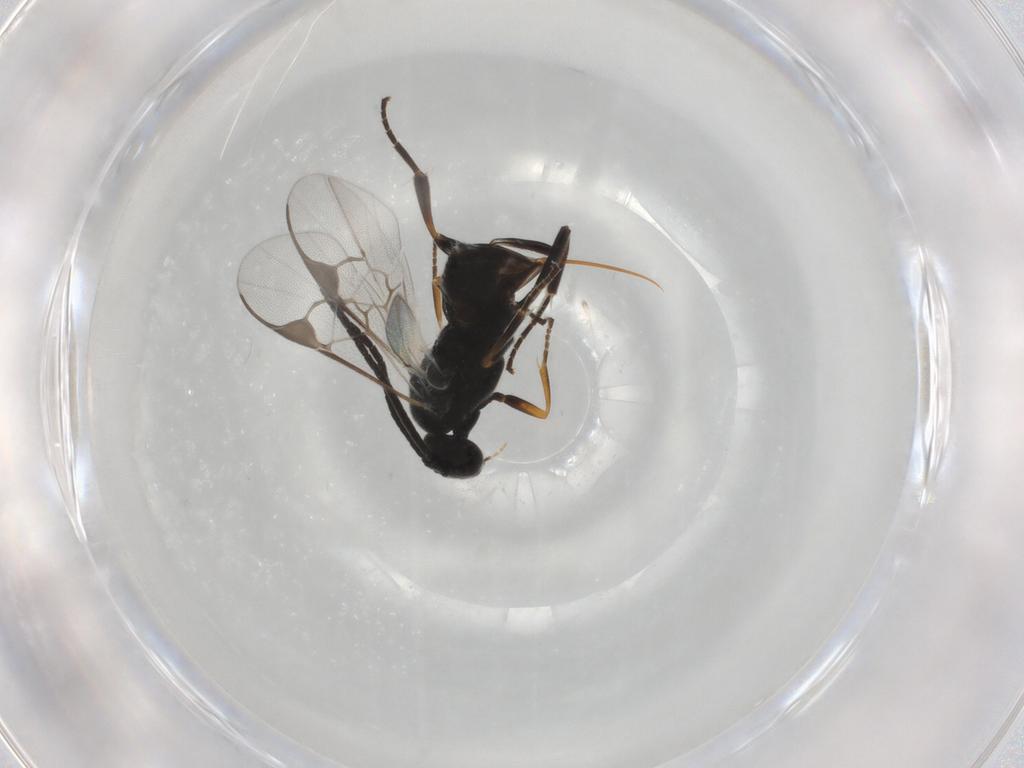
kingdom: Animalia
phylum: Arthropoda
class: Insecta
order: Hymenoptera
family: Braconidae
